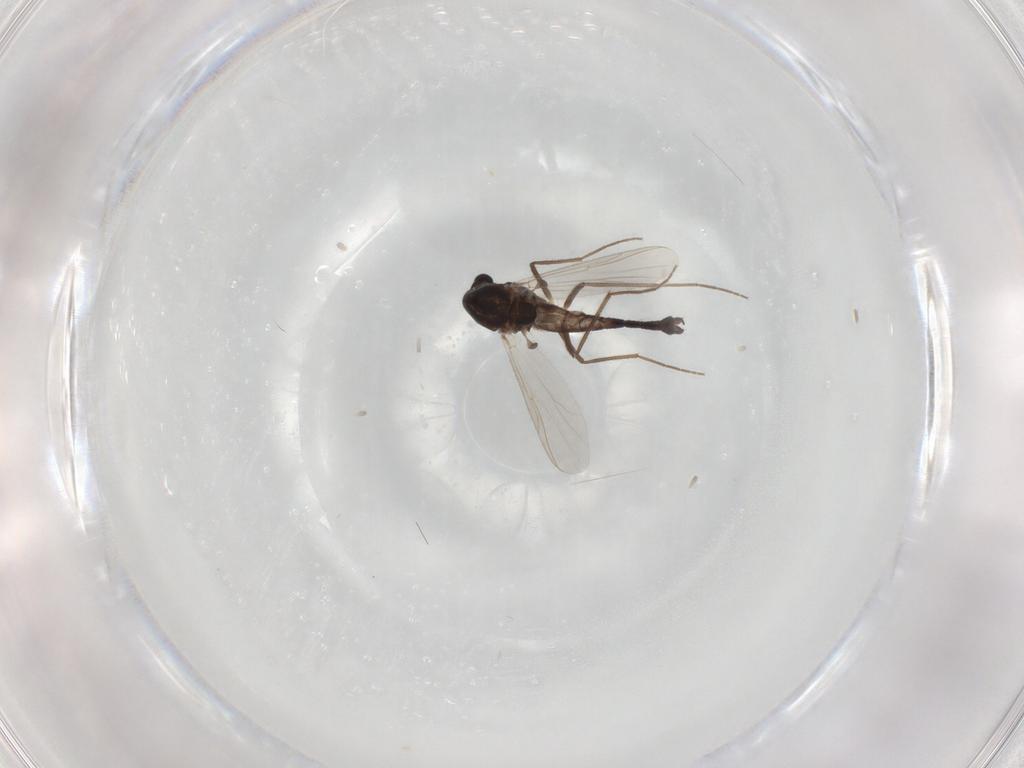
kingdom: Animalia
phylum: Arthropoda
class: Insecta
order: Diptera
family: Chironomidae
